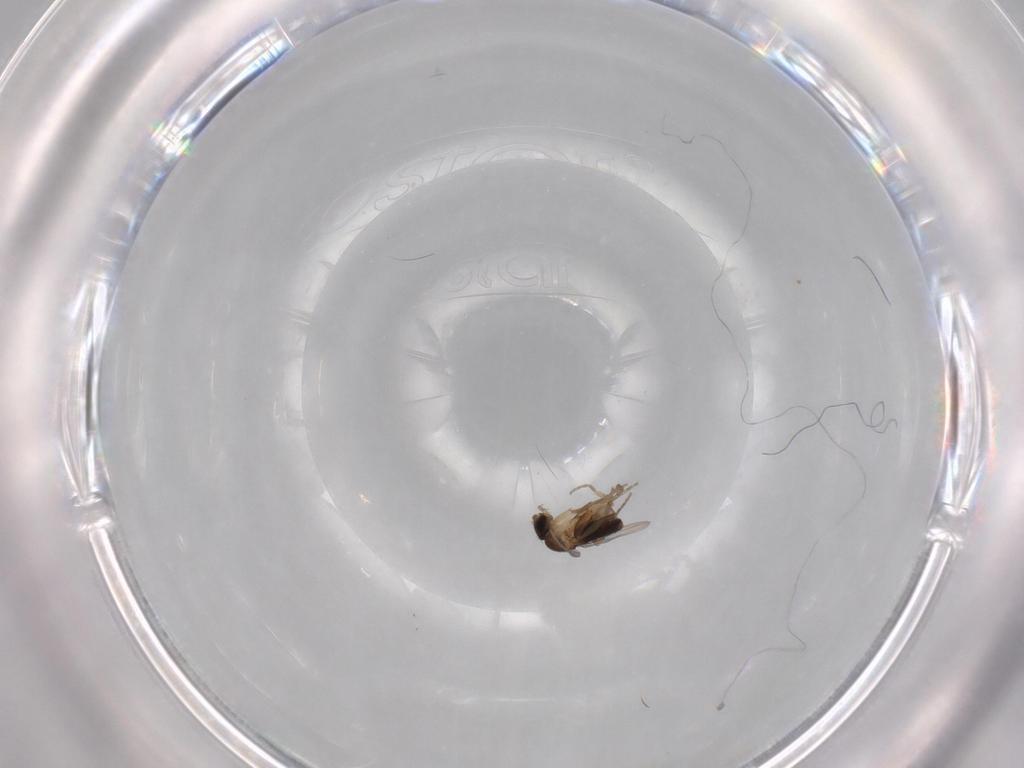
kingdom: Animalia
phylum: Arthropoda
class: Insecta
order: Diptera
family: Phoridae
